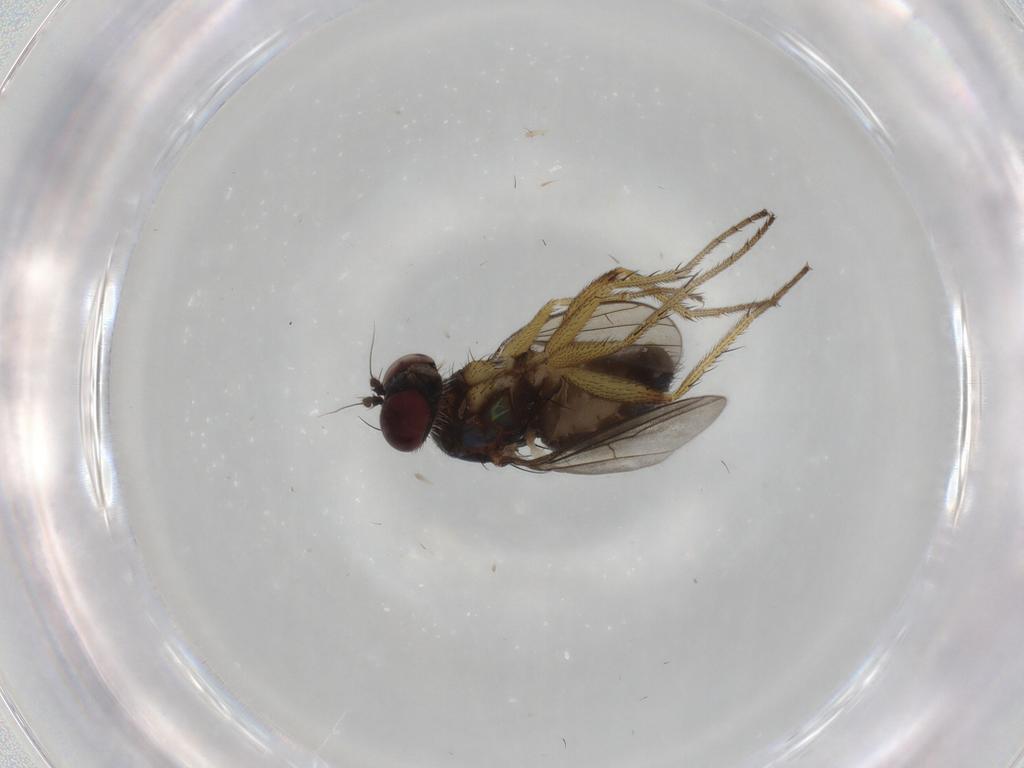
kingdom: Animalia
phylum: Arthropoda
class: Insecta
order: Diptera
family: Dolichopodidae
